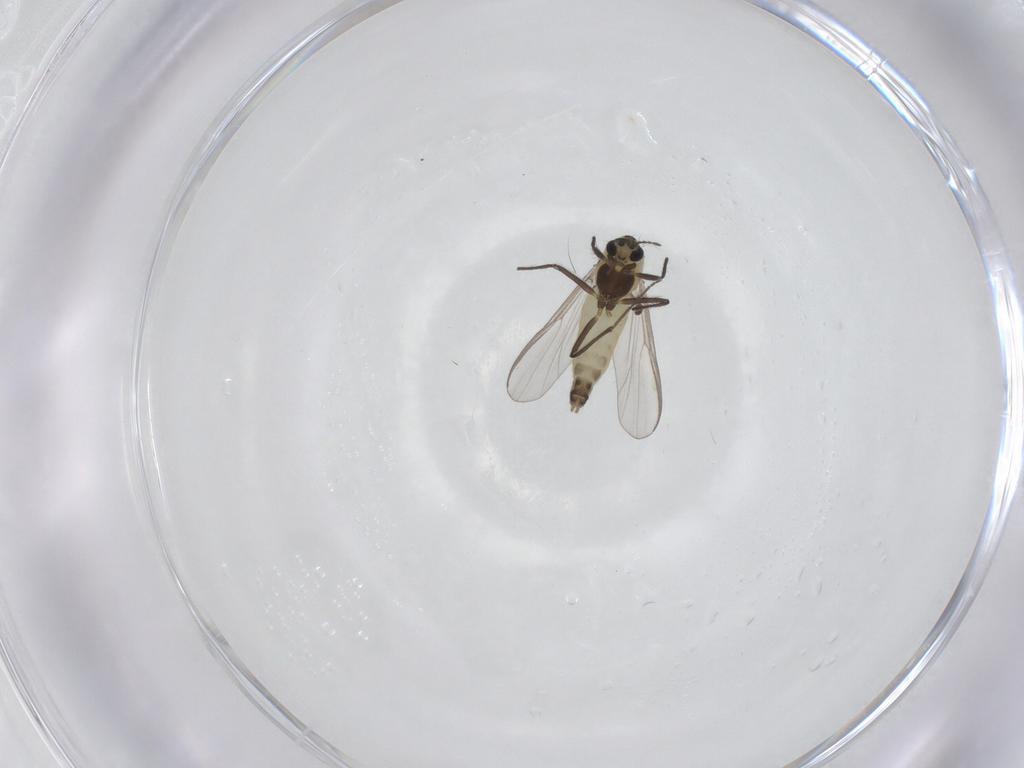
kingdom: Animalia
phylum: Arthropoda
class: Insecta
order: Diptera
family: Chironomidae
